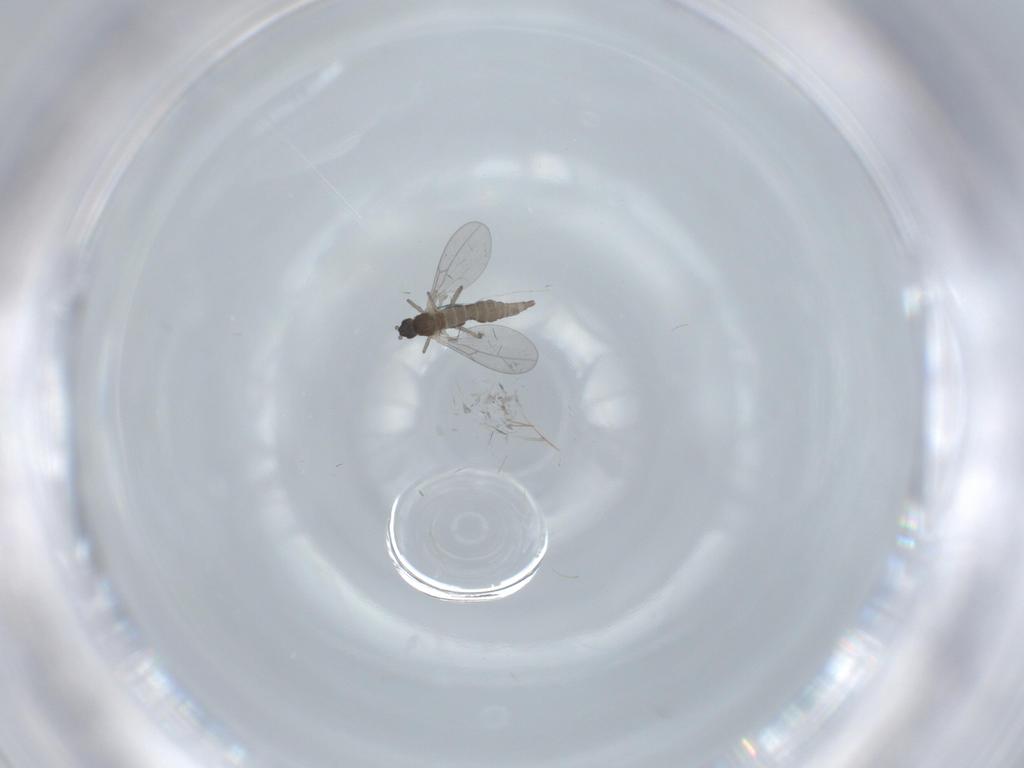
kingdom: Animalia
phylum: Arthropoda
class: Insecta
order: Diptera
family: Cecidomyiidae
